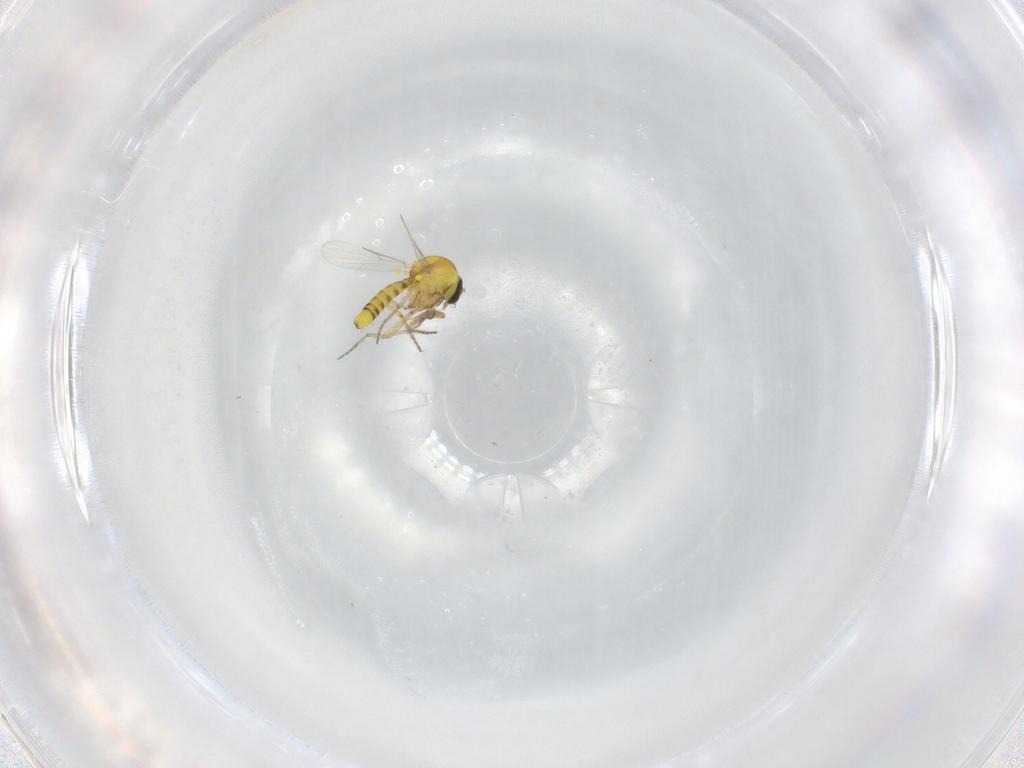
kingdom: Animalia
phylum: Arthropoda
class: Insecta
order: Diptera
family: Ceratopogonidae
